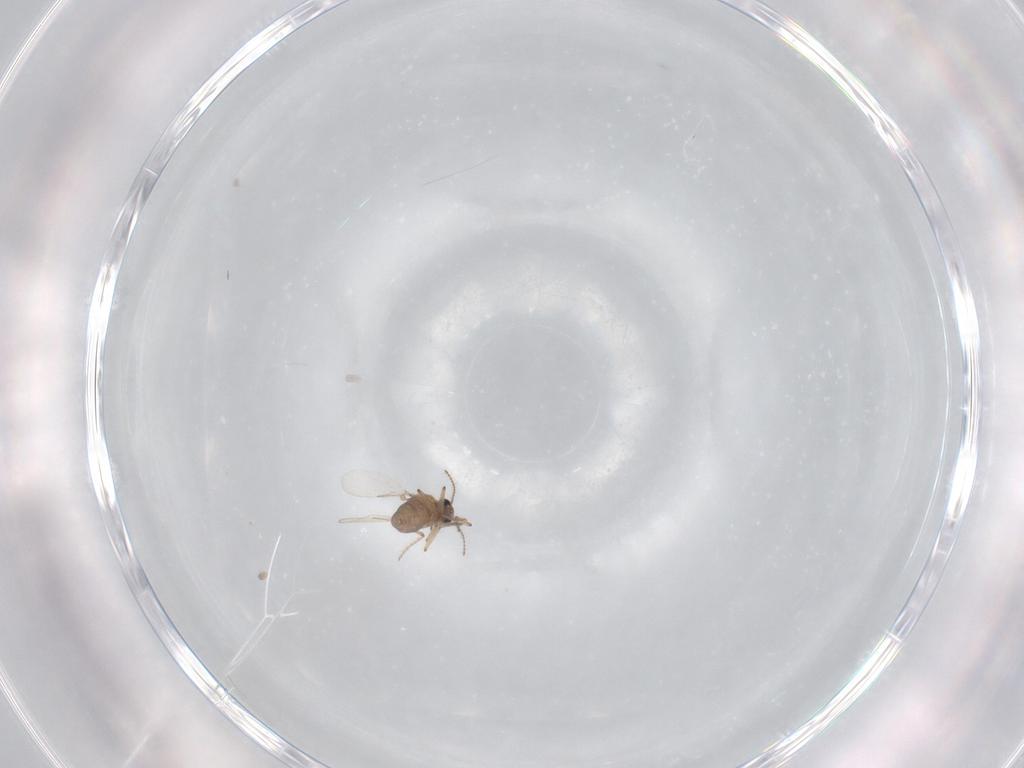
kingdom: Animalia
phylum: Arthropoda
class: Insecta
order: Diptera
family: Ceratopogonidae
